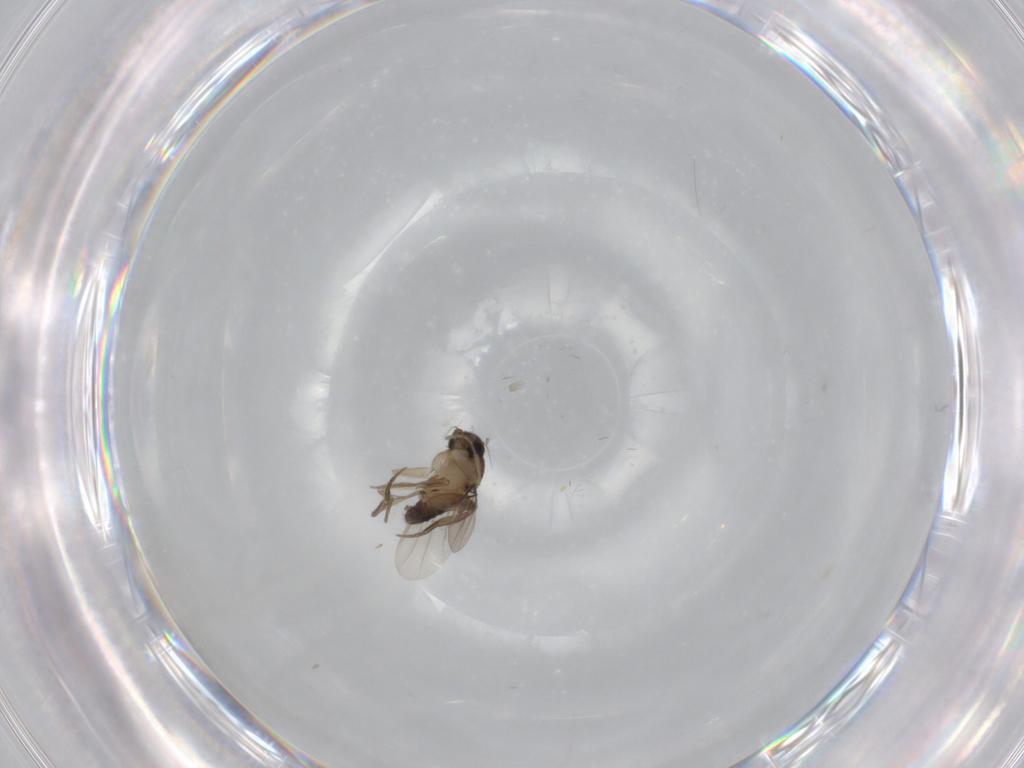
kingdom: Animalia
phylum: Arthropoda
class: Insecta
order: Diptera
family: Phoridae
